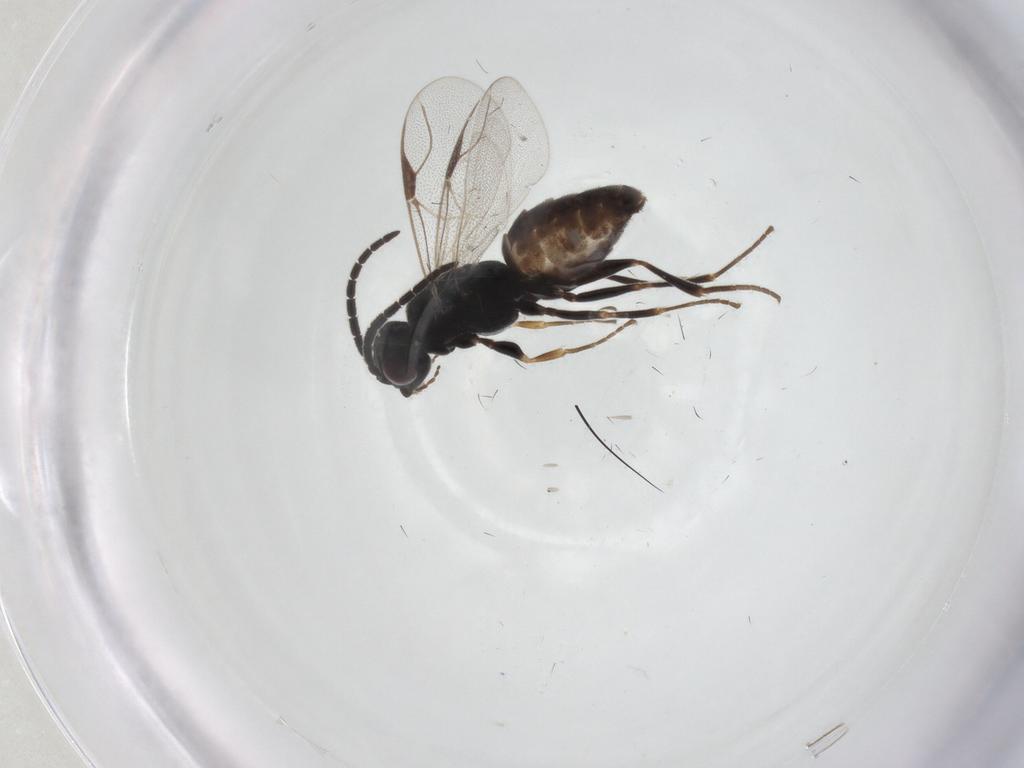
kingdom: Animalia
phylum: Arthropoda
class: Insecta
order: Hymenoptera
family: Dryinidae
